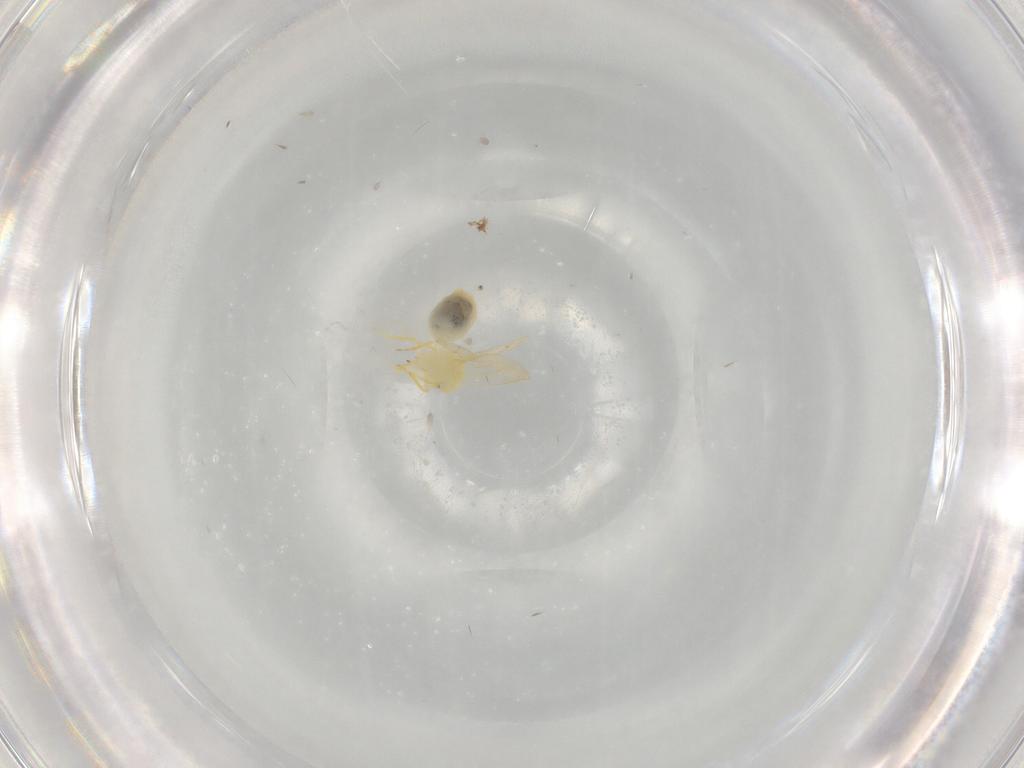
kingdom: Animalia
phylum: Arthropoda
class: Insecta
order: Hemiptera
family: Aleyrodidae
